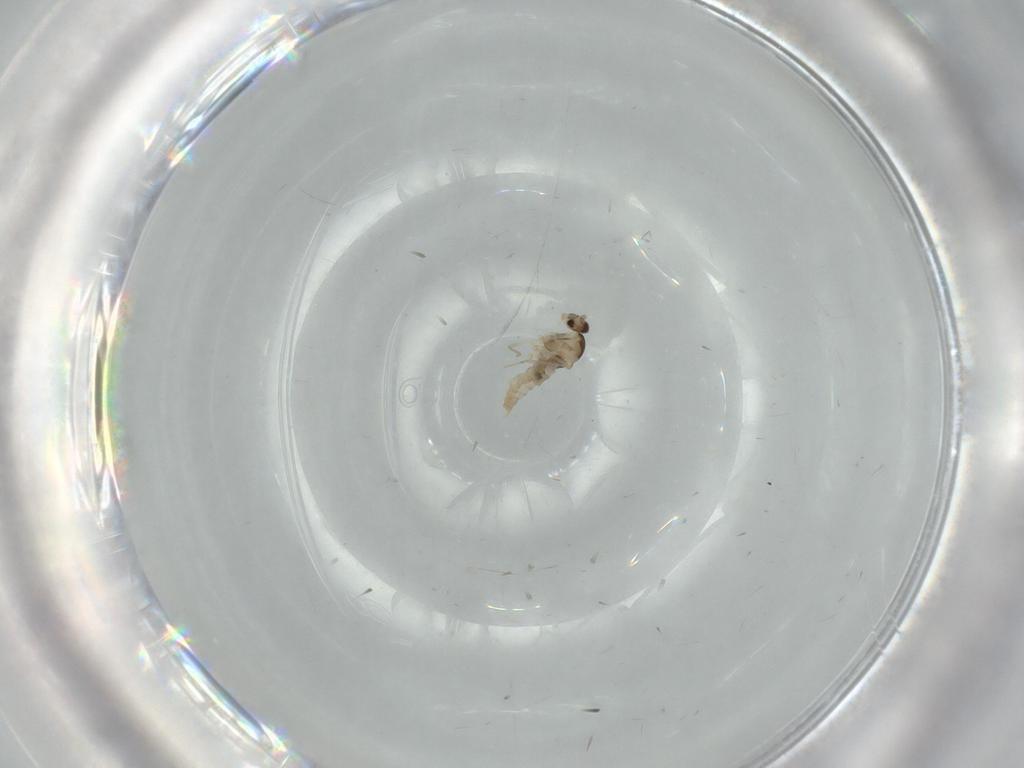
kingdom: Animalia
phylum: Arthropoda
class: Insecta
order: Diptera
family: Cecidomyiidae
